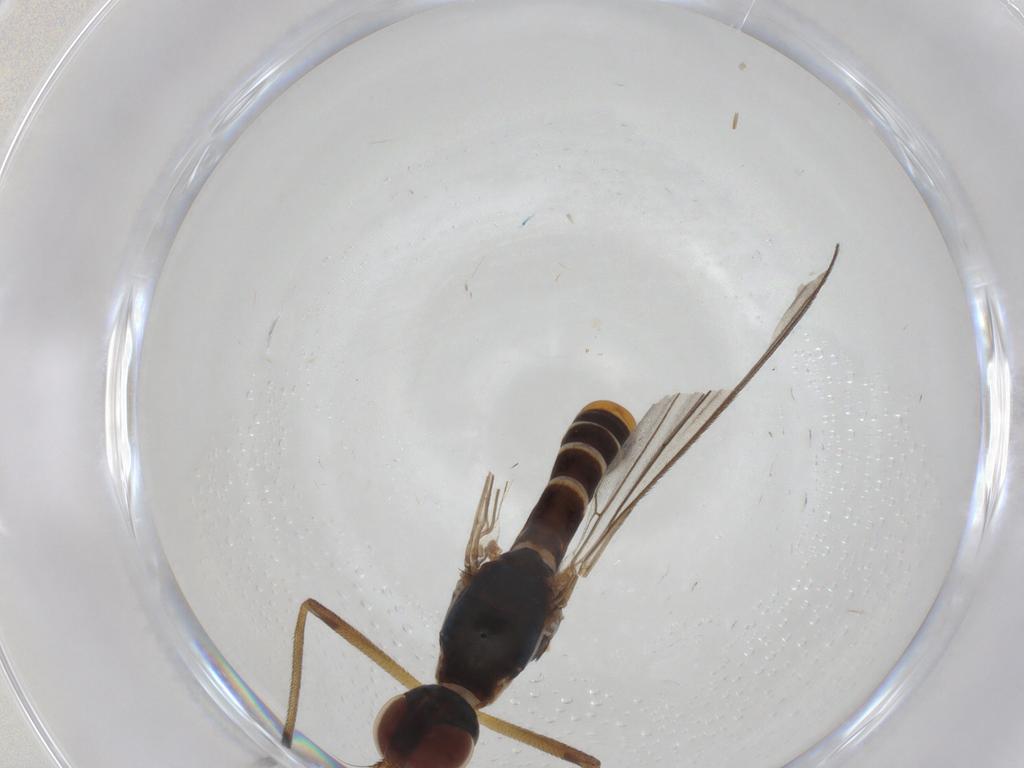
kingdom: Animalia
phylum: Arthropoda
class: Insecta
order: Diptera
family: Micropezidae
